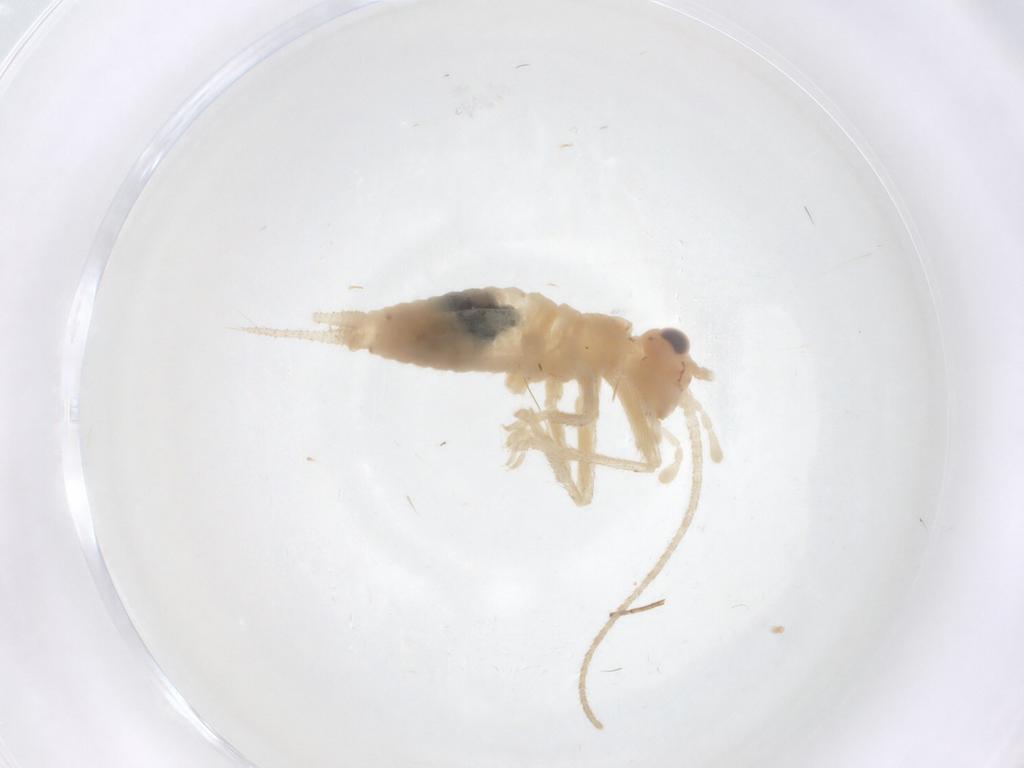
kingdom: Animalia
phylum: Arthropoda
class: Insecta
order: Orthoptera
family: Trigonidiidae
